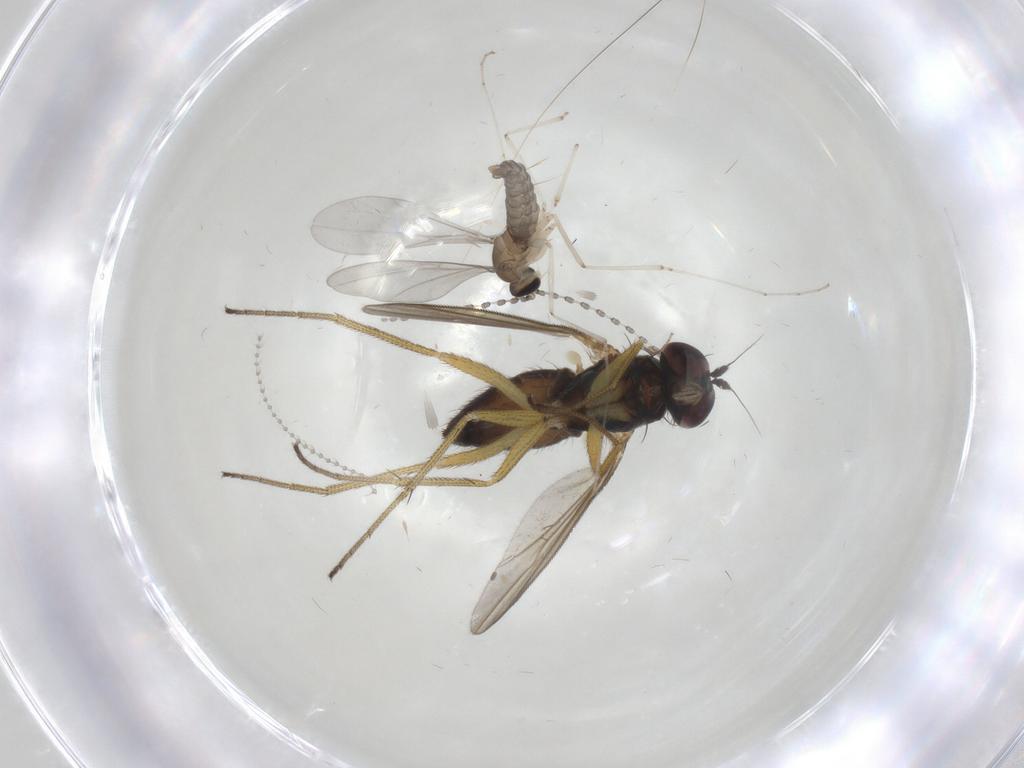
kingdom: Animalia
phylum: Arthropoda
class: Insecta
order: Diptera
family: Dolichopodidae
